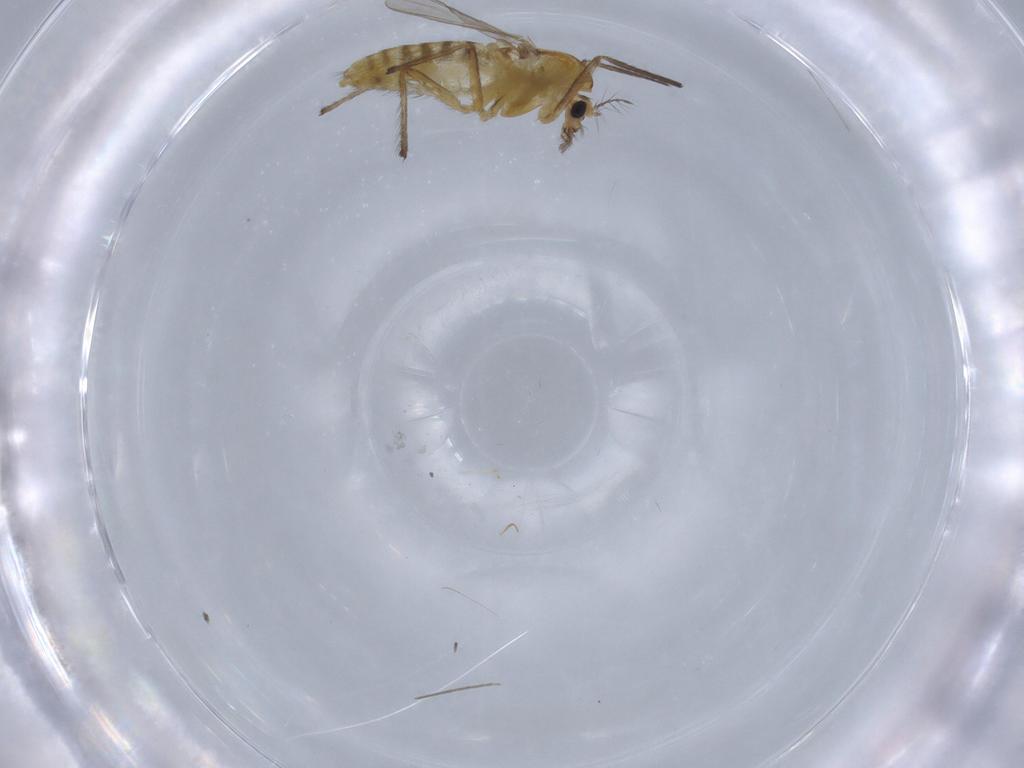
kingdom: Animalia
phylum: Arthropoda
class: Insecta
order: Diptera
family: Chironomidae
